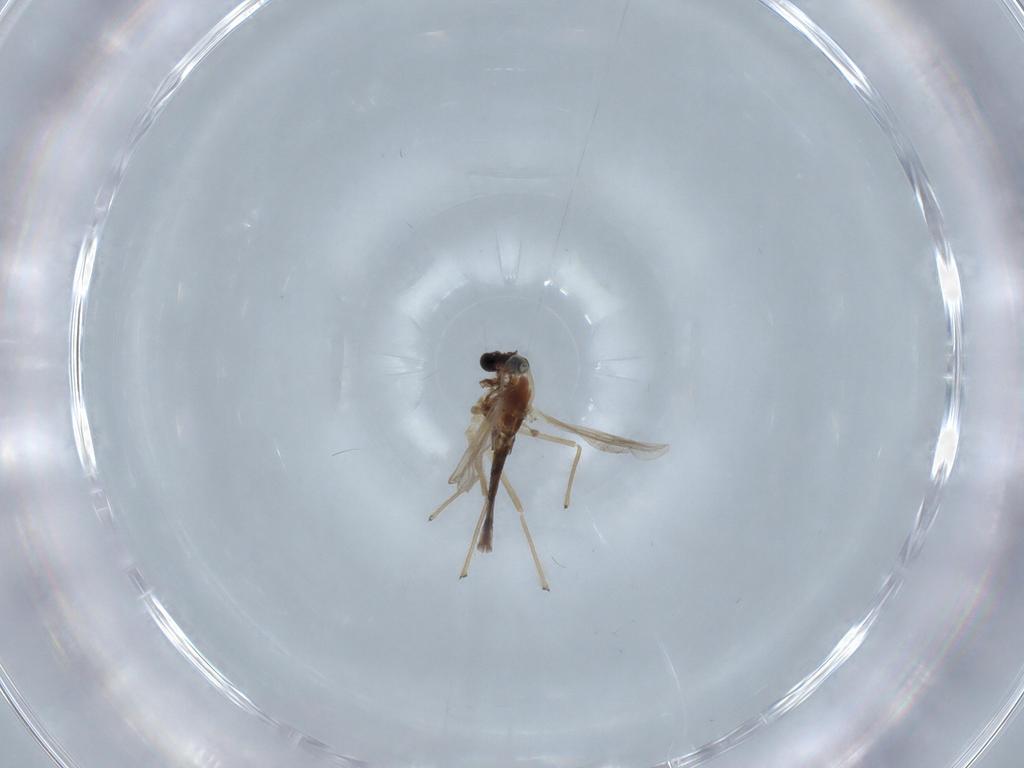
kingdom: Animalia
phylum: Arthropoda
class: Insecta
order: Diptera
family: Chironomidae
